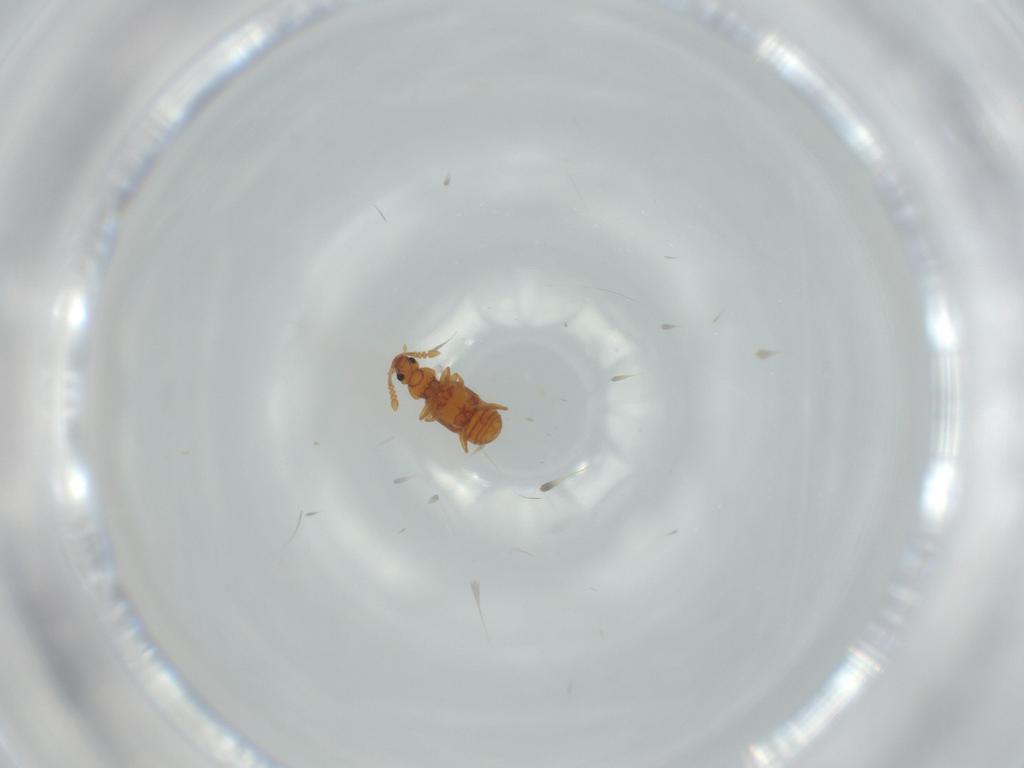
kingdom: Animalia
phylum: Arthropoda
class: Insecta
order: Coleoptera
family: Staphylinidae
